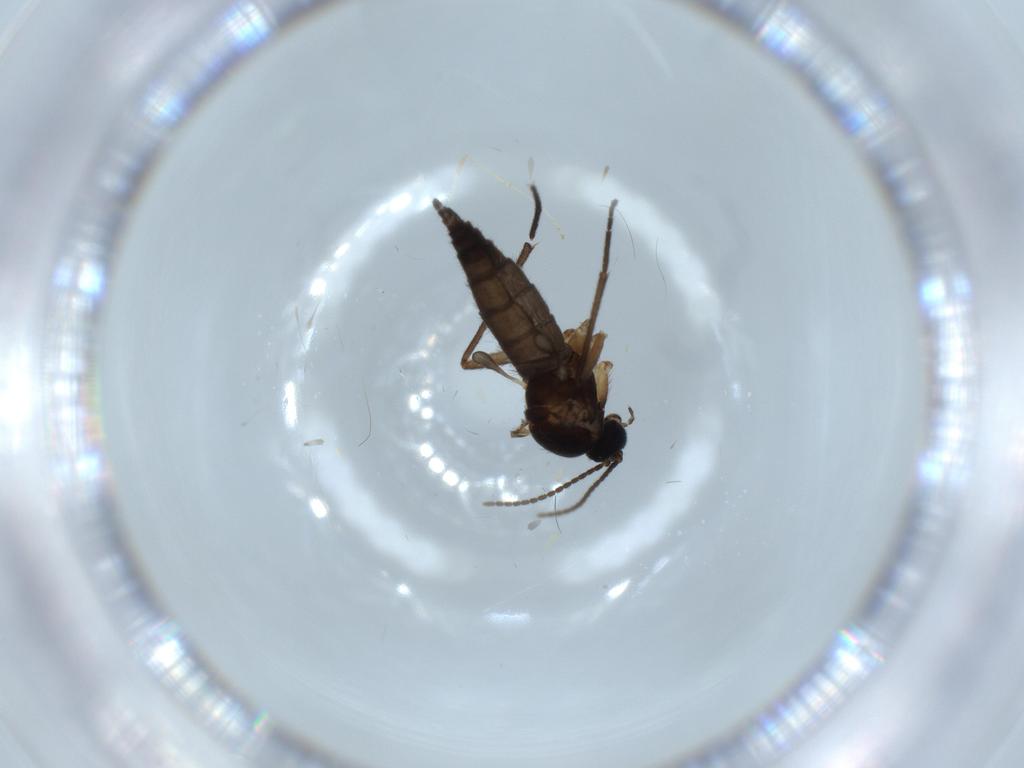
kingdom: Animalia
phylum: Arthropoda
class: Insecta
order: Diptera
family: Sciaridae
